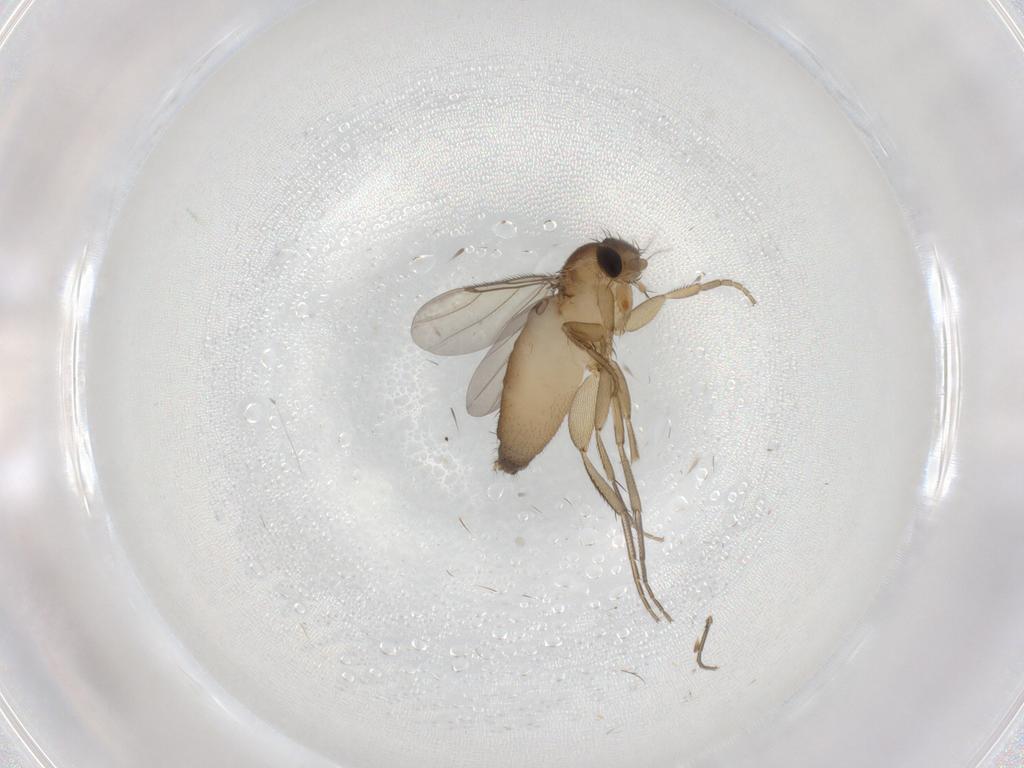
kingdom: Animalia
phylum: Arthropoda
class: Insecta
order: Diptera
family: Phoridae
